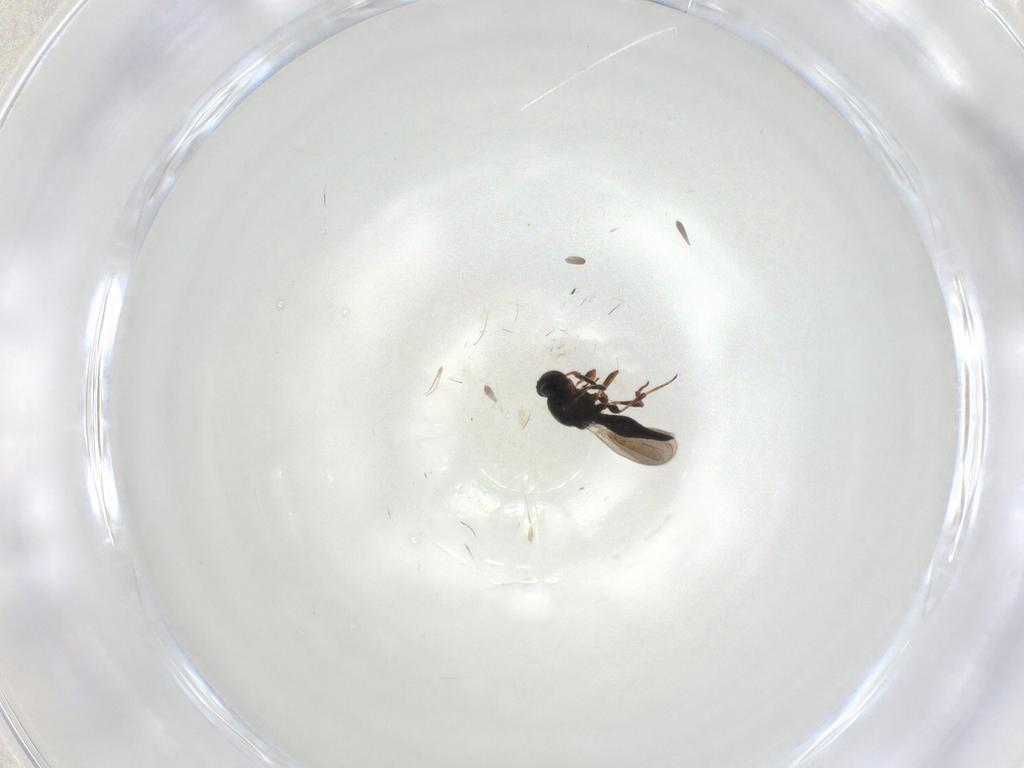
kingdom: Animalia
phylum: Arthropoda
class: Insecta
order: Hymenoptera
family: Platygastridae
